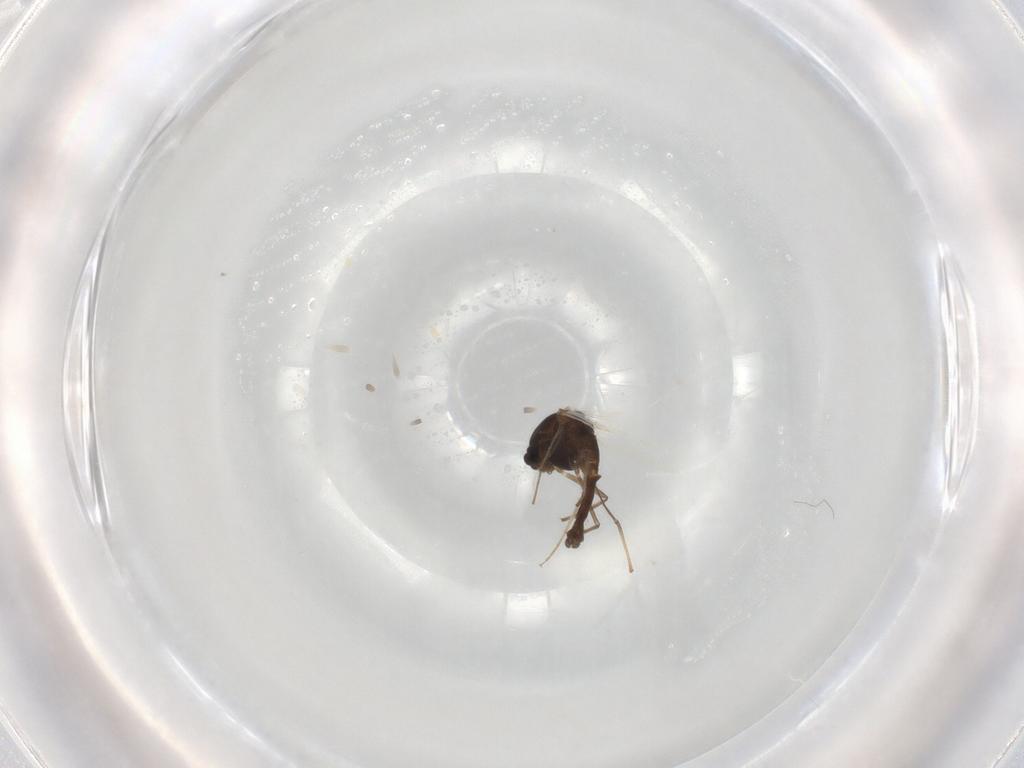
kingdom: Animalia
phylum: Arthropoda
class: Insecta
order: Diptera
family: Chironomidae
